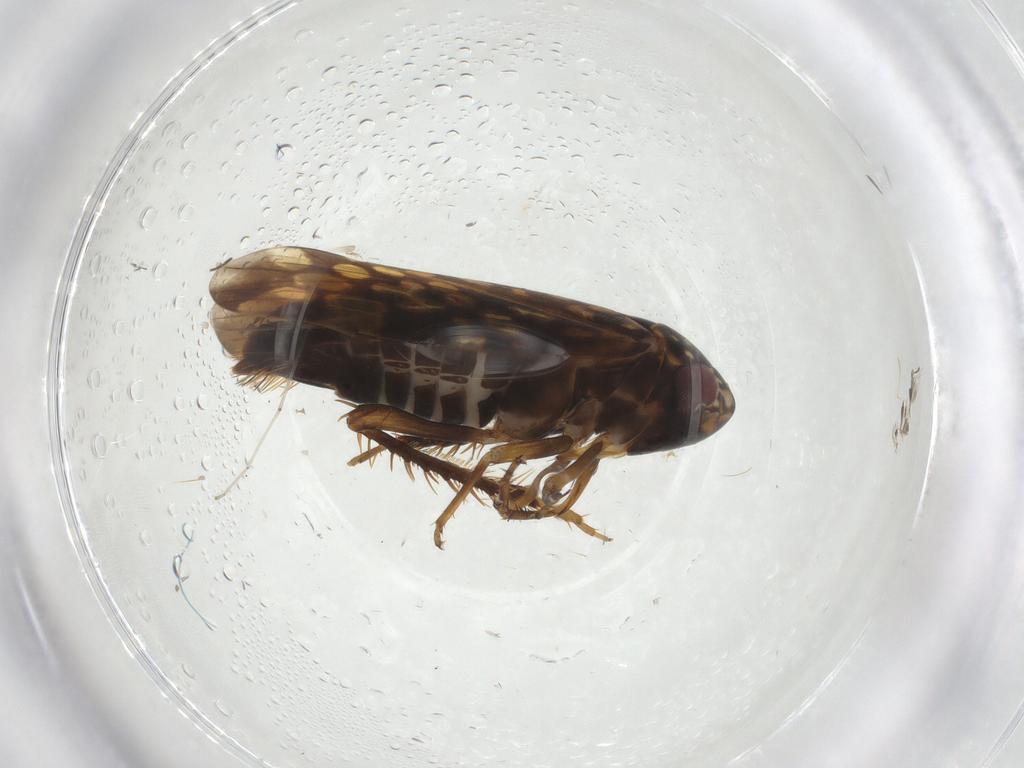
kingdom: Animalia
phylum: Arthropoda
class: Insecta
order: Hemiptera
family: Cicadellidae
